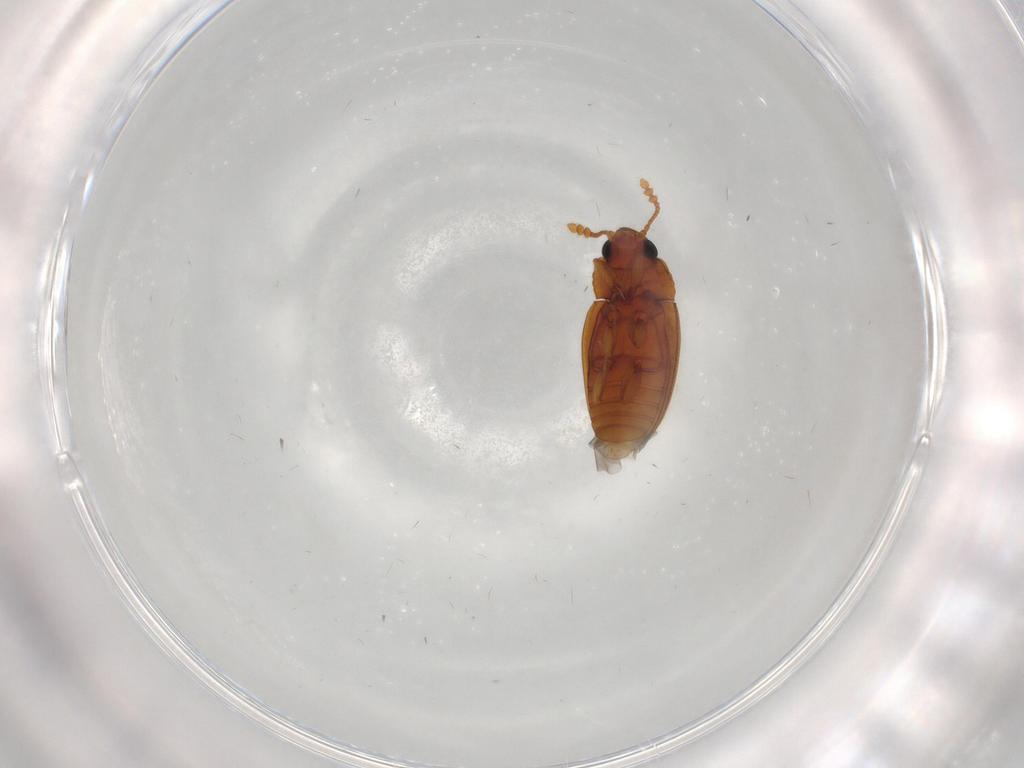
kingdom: Animalia
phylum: Arthropoda
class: Insecta
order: Coleoptera
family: Erotylidae
